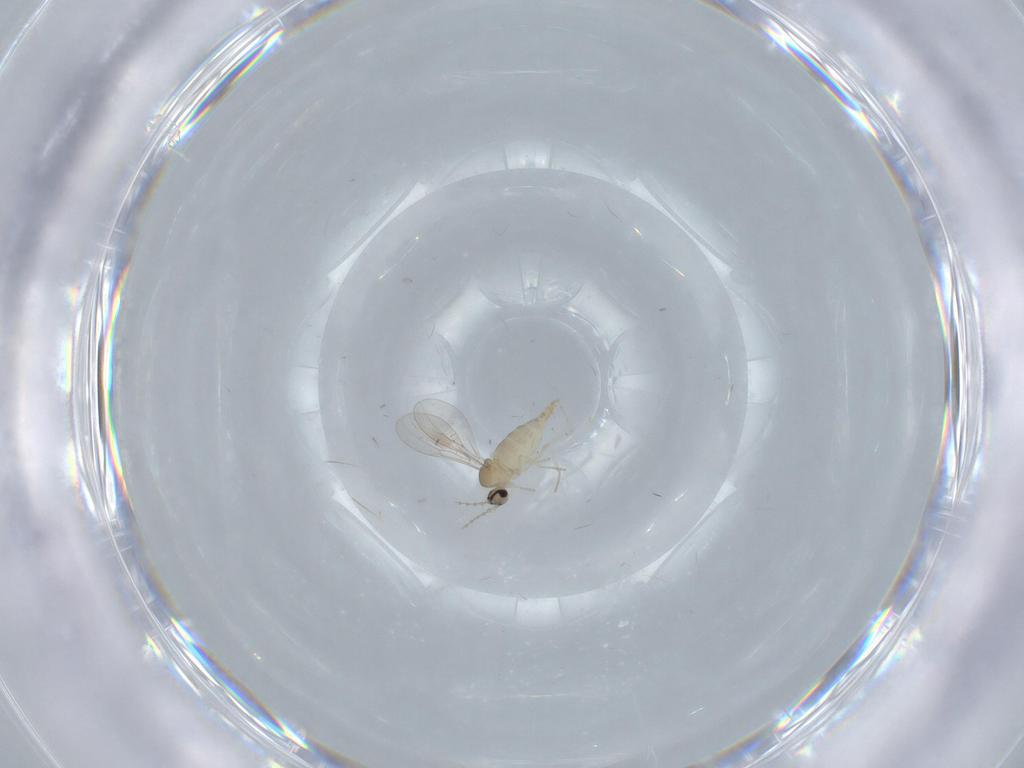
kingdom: Animalia
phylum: Arthropoda
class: Insecta
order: Diptera
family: Cecidomyiidae
